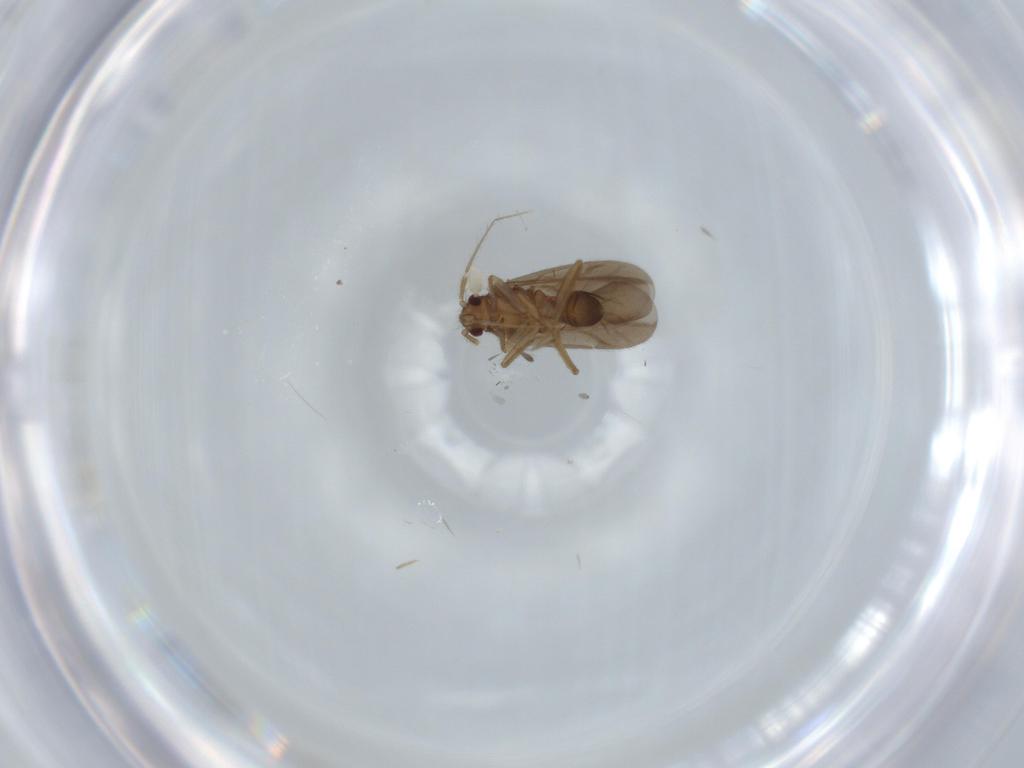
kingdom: Animalia
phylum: Arthropoda
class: Insecta
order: Hemiptera
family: Ceratocombidae
